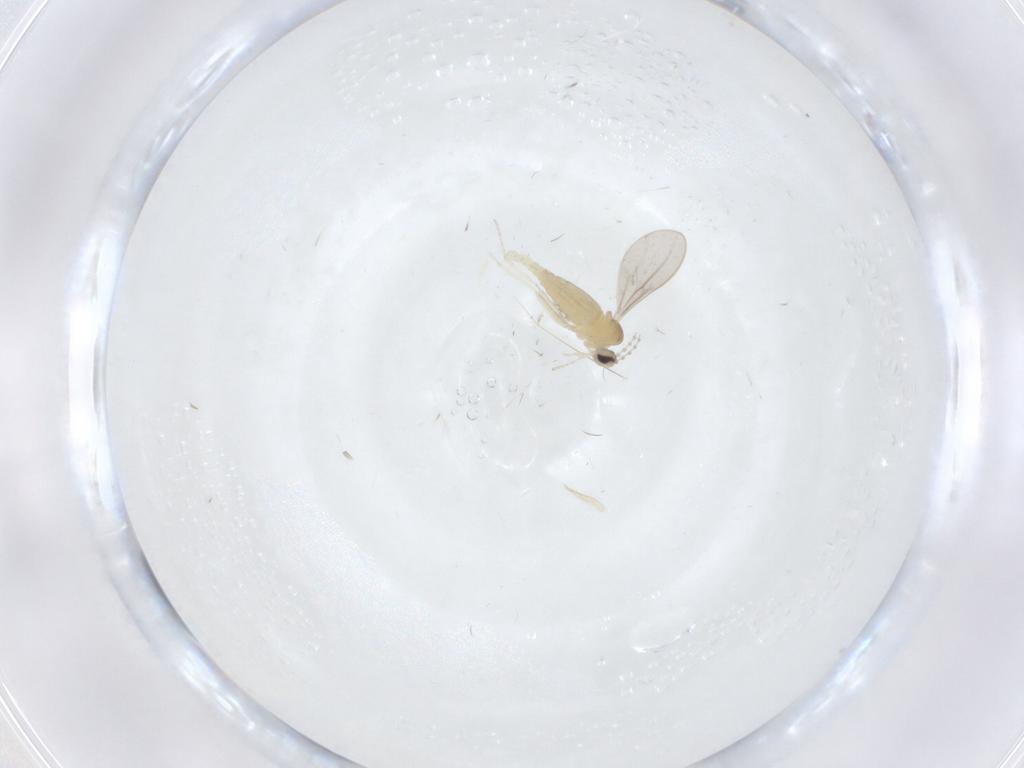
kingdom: Animalia
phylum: Arthropoda
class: Insecta
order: Diptera
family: Cecidomyiidae
